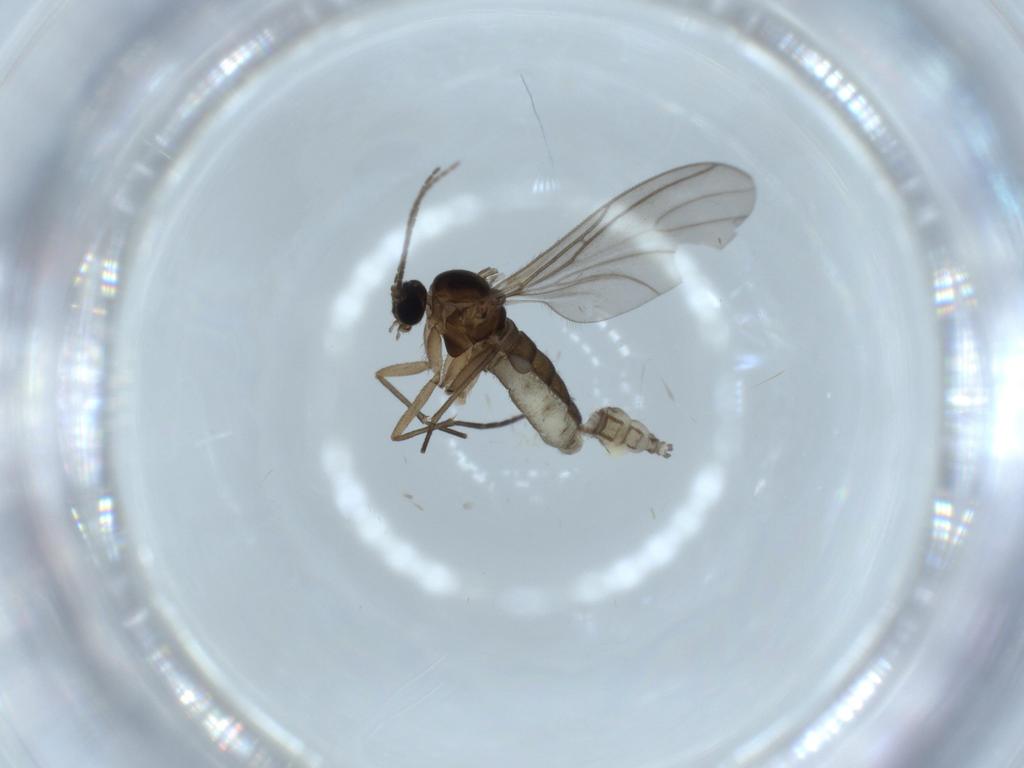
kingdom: Animalia
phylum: Arthropoda
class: Insecta
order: Diptera
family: Sciaridae
